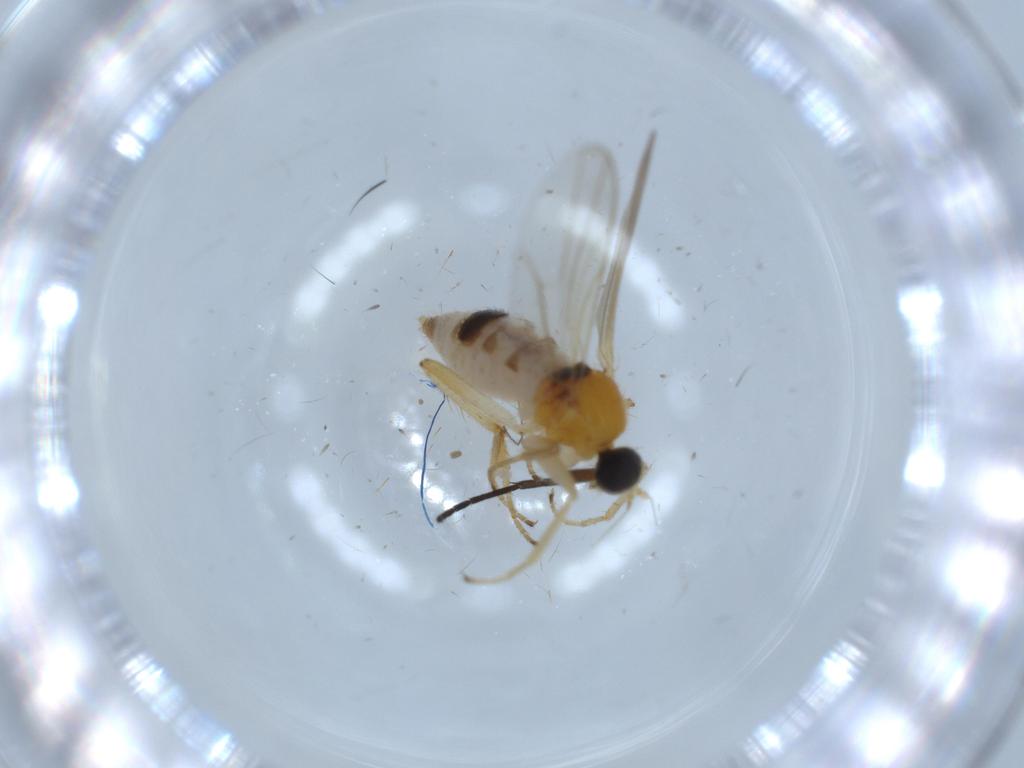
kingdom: Animalia
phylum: Arthropoda
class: Insecta
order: Diptera
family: Hybotidae
